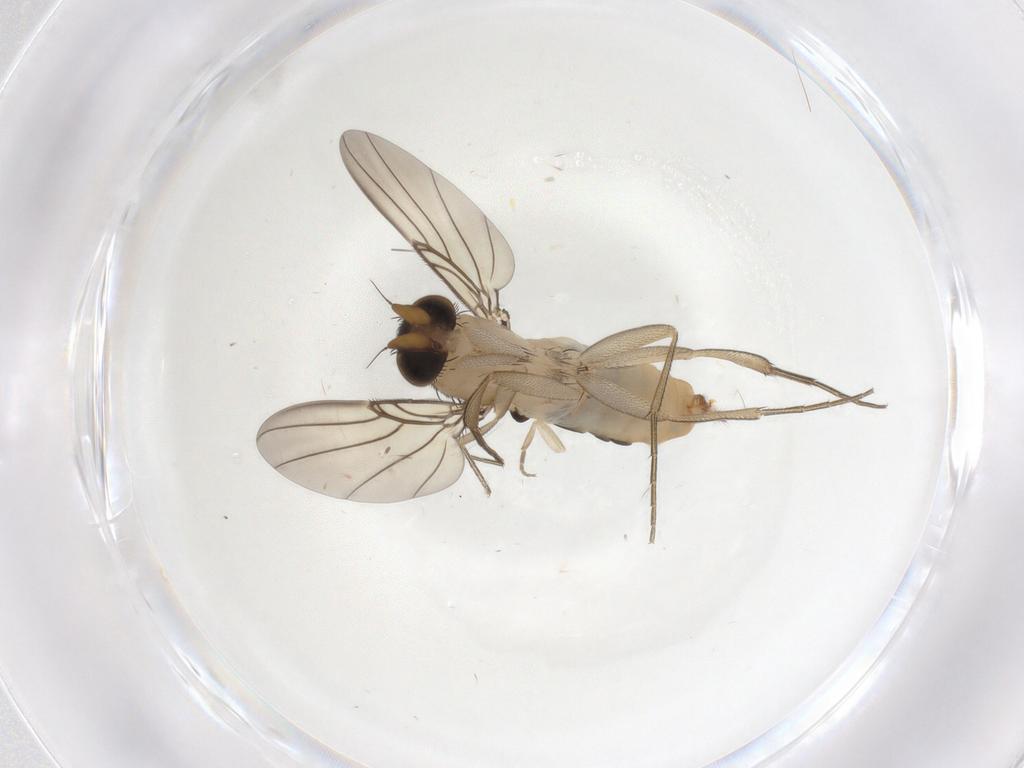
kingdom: Animalia
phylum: Arthropoda
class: Insecta
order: Diptera
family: Phoridae
